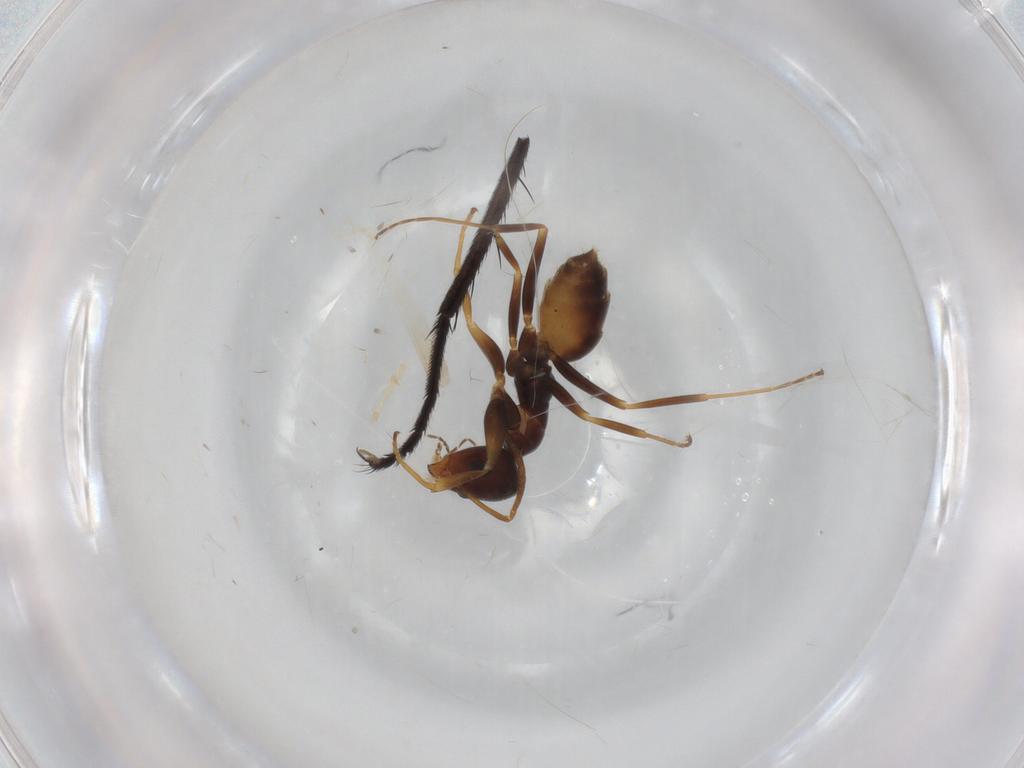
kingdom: Animalia
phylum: Arthropoda
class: Insecta
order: Hymenoptera
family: Formicidae
